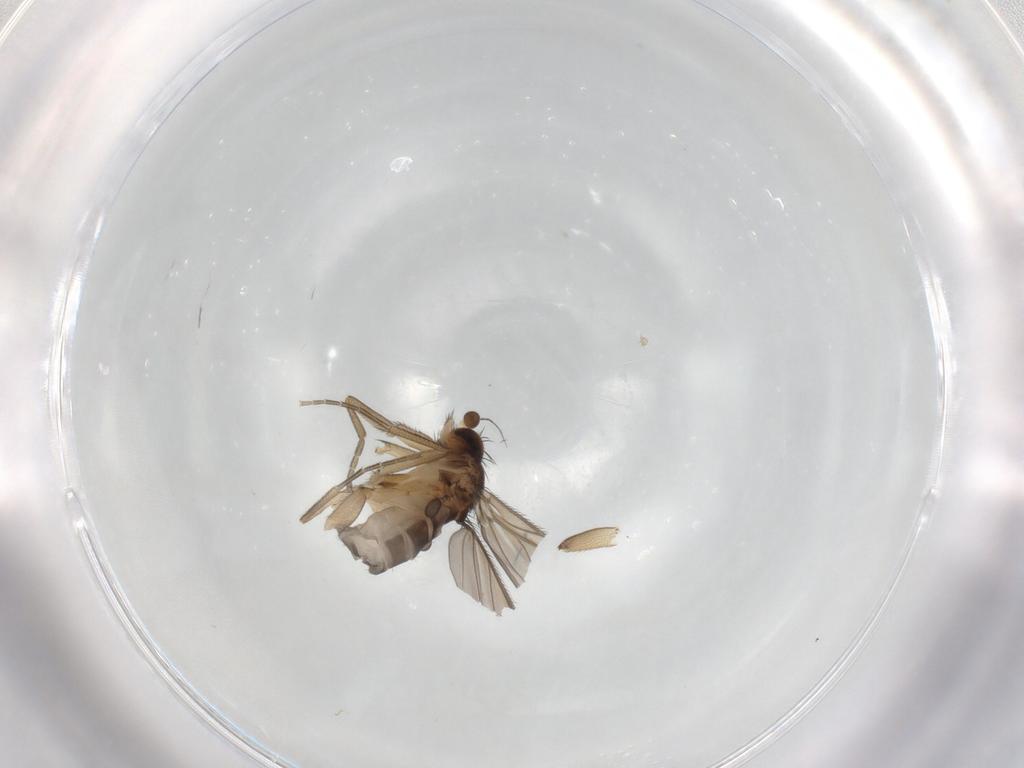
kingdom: Animalia
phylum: Arthropoda
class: Insecta
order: Diptera
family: Phoridae
